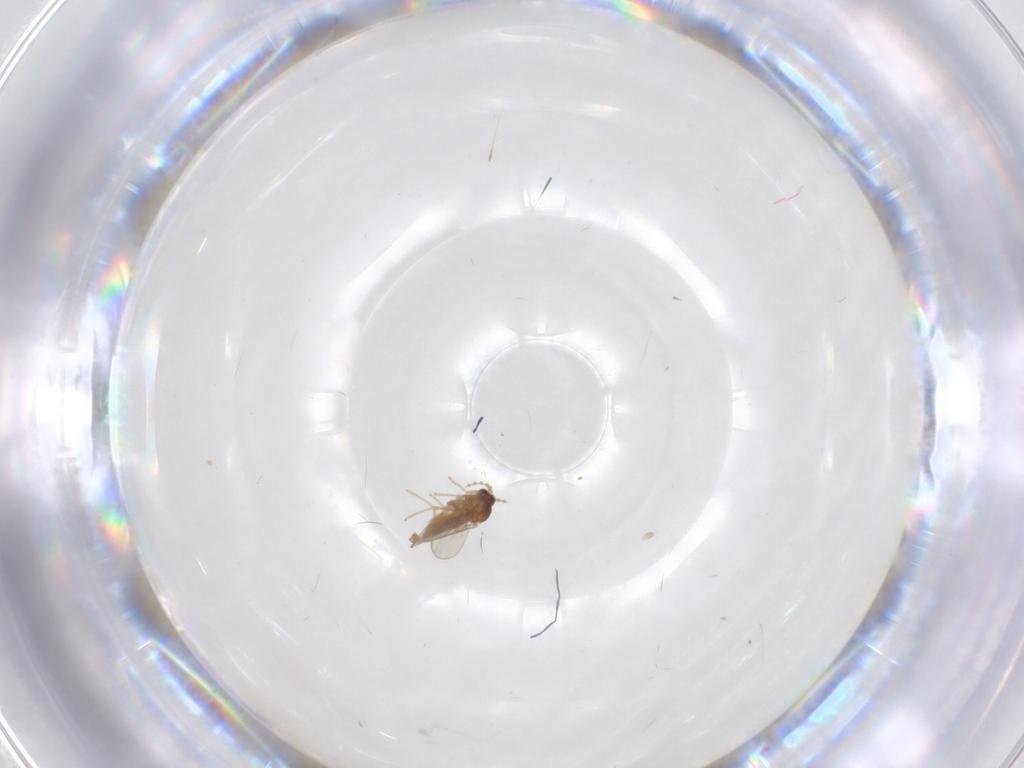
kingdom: Animalia
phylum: Arthropoda
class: Insecta
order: Diptera
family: Cecidomyiidae
